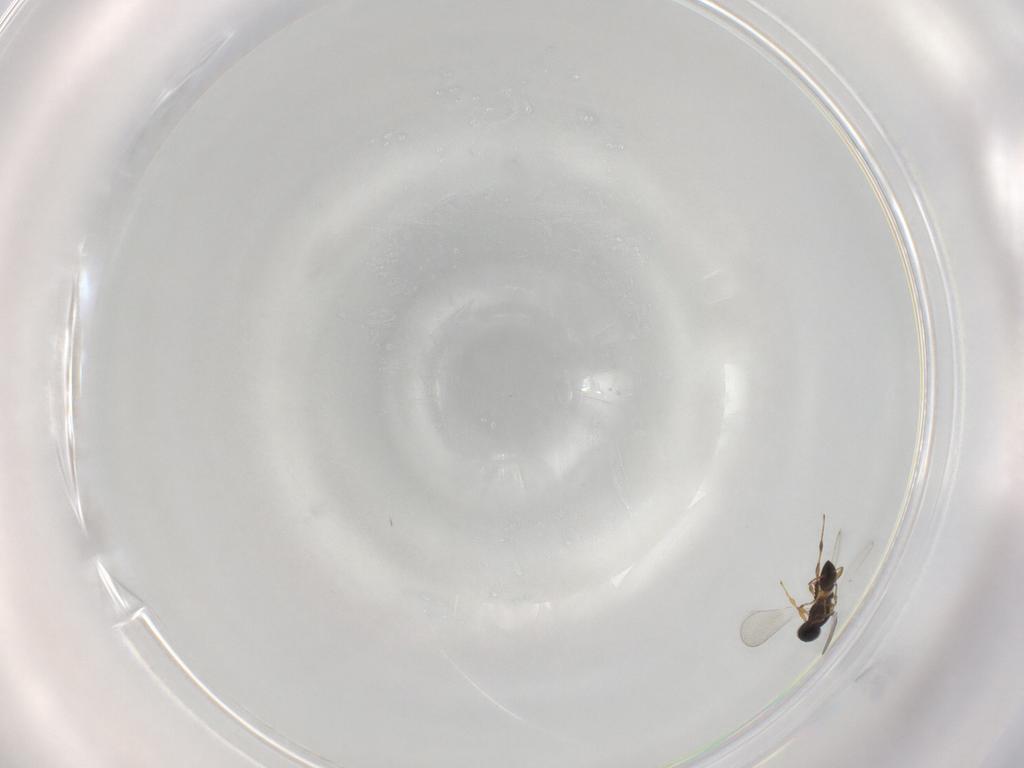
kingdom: Animalia
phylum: Arthropoda
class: Insecta
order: Hymenoptera
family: Platygastridae
